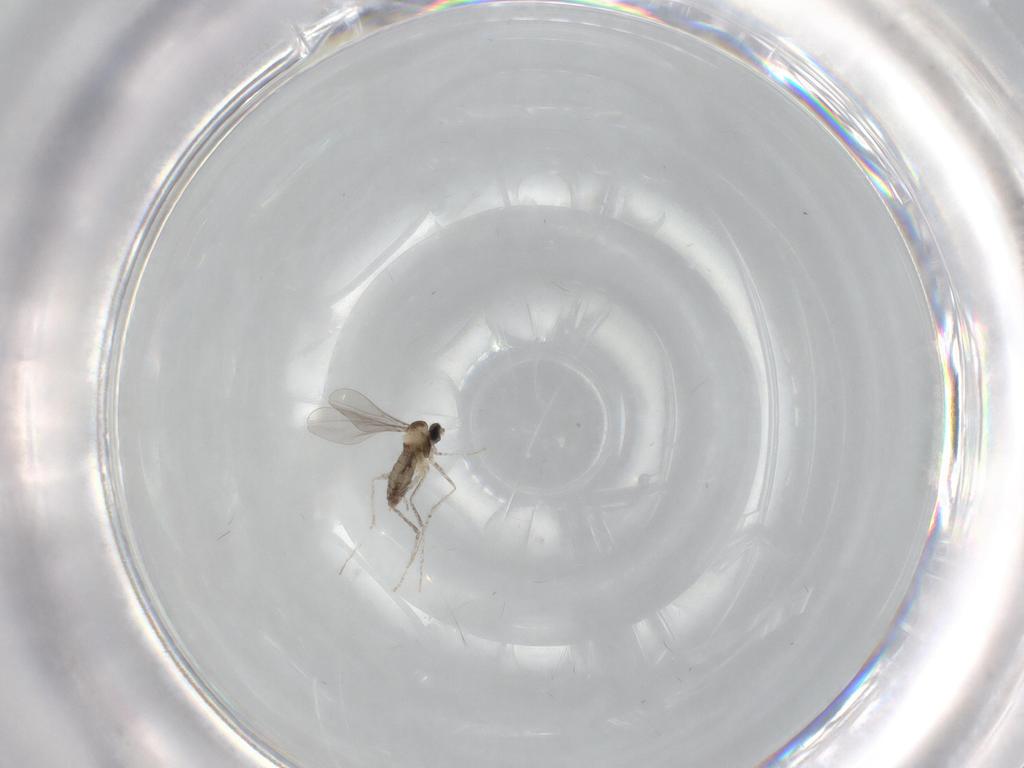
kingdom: Animalia
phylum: Arthropoda
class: Insecta
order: Diptera
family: Cecidomyiidae
